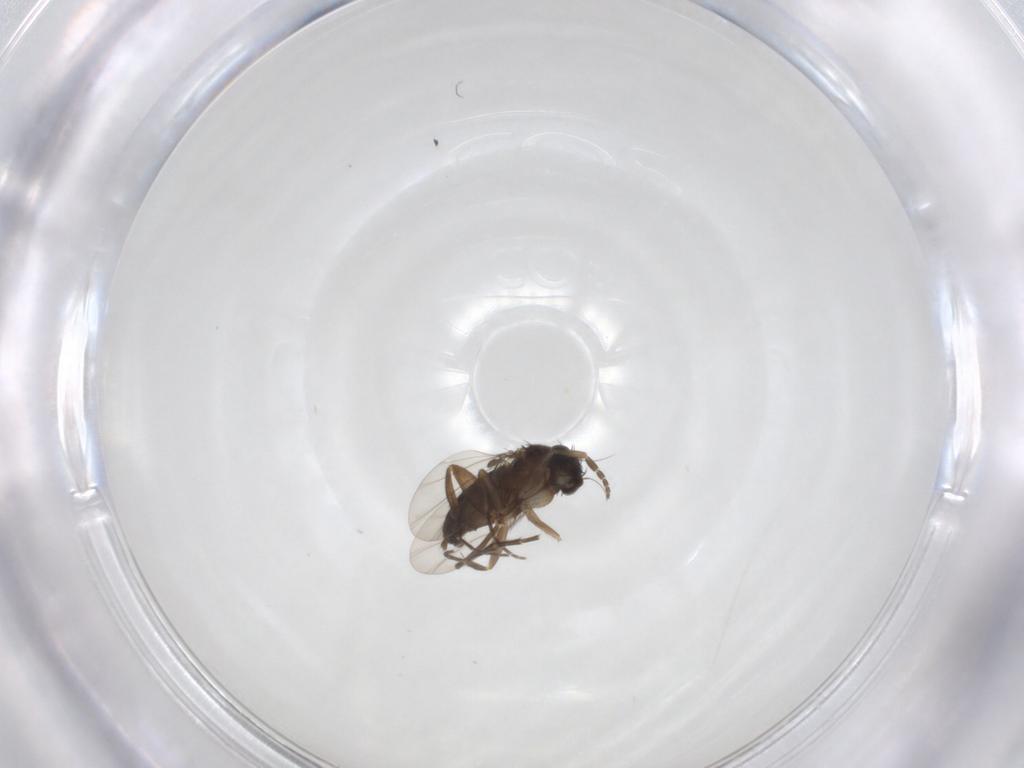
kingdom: Animalia
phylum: Arthropoda
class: Insecta
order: Diptera
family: Phoridae
